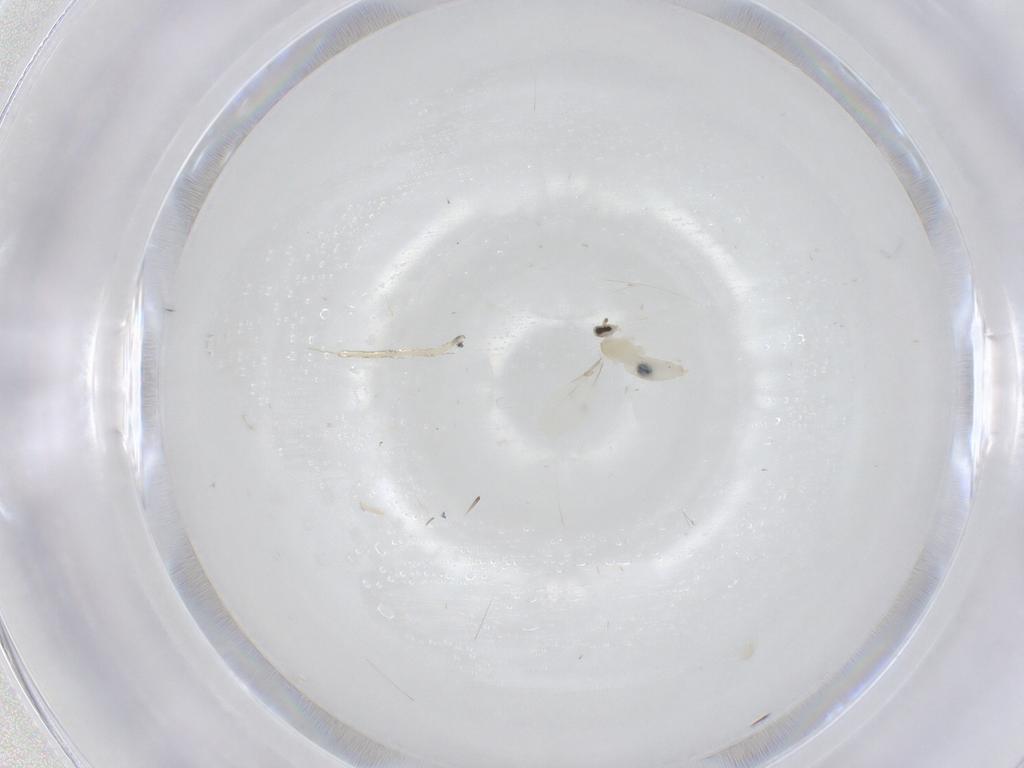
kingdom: Animalia
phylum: Arthropoda
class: Insecta
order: Diptera
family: Cecidomyiidae
